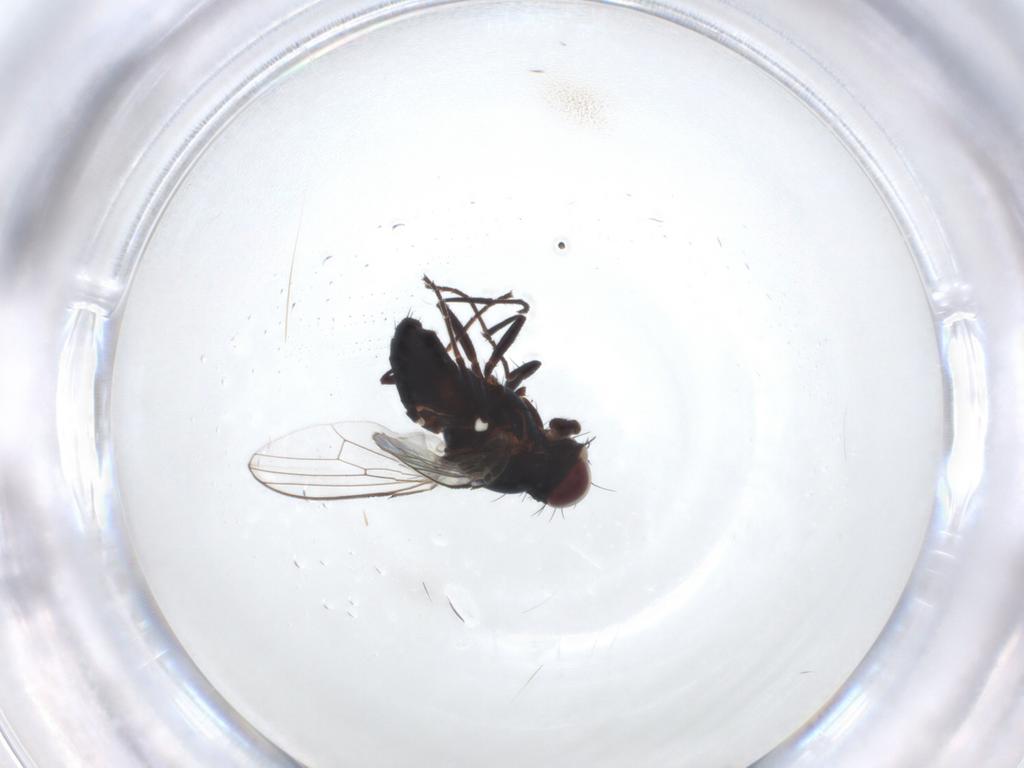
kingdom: Animalia
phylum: Arthropoda
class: Insecta
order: Diptera
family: Carnidae
